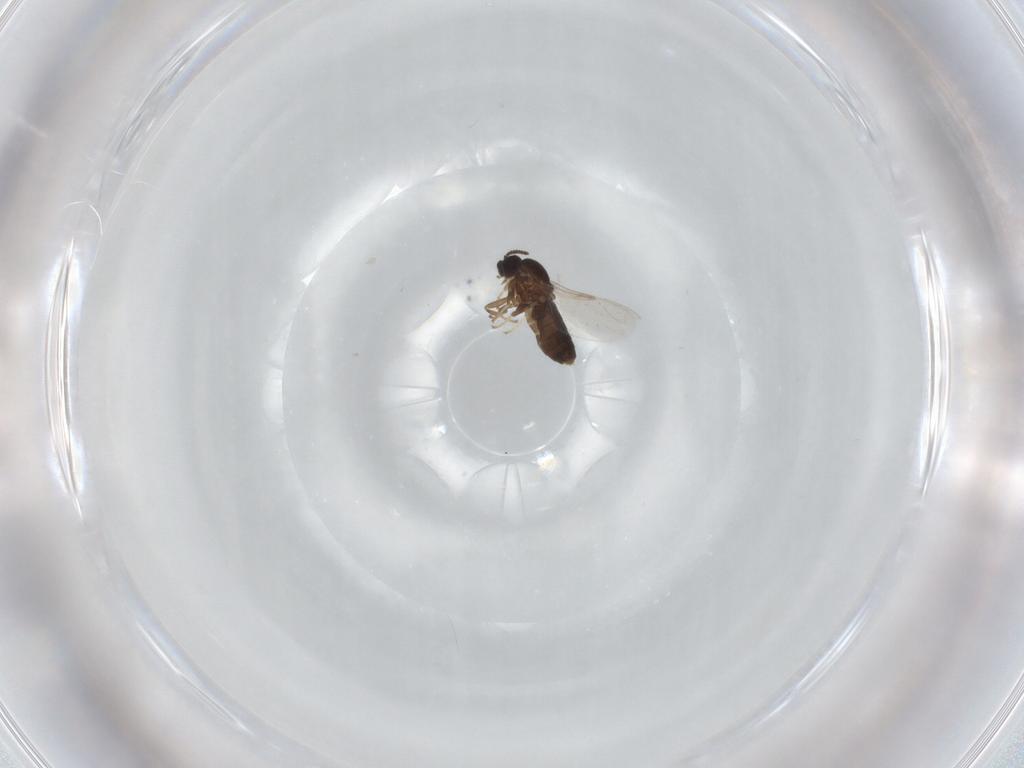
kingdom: Animalia
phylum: Arthropoda
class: Insecta
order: Diptera
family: Scatopsidae
